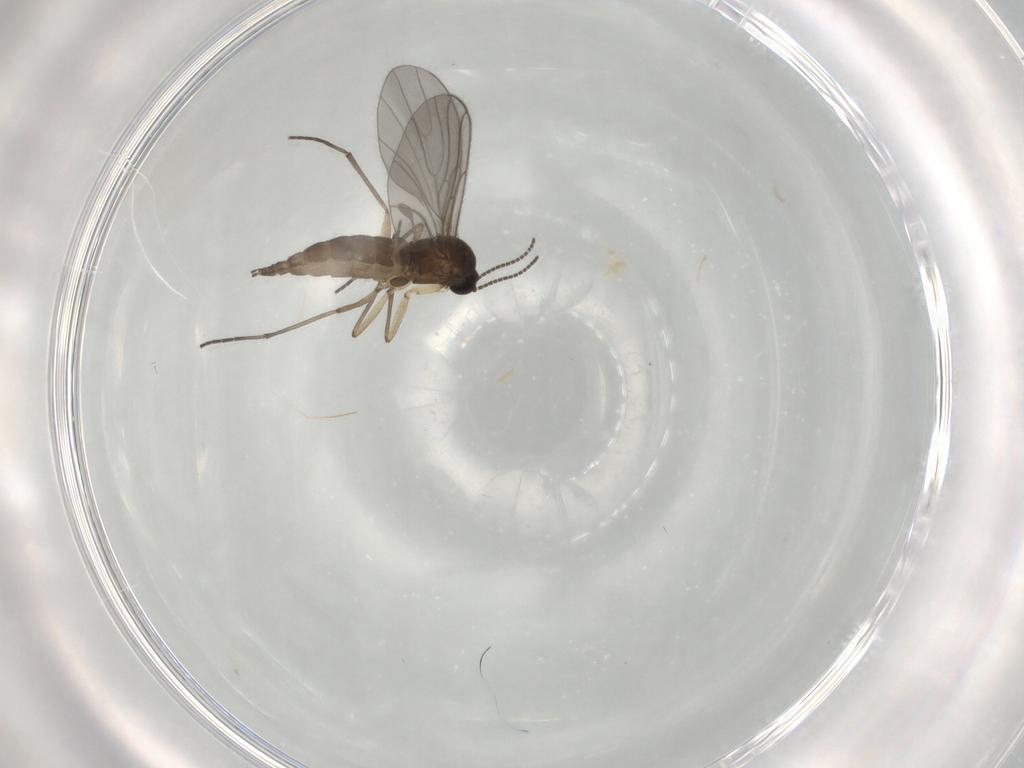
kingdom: Animalia
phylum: Arthropoda
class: Insecta
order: Diptera
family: Sciaridae
